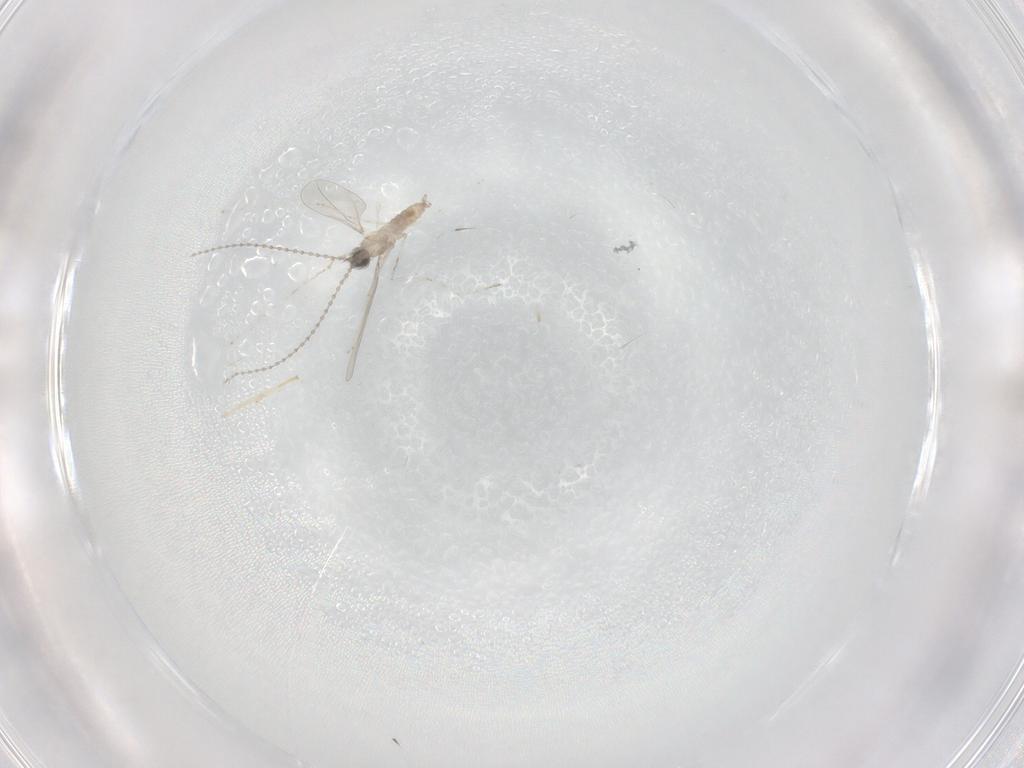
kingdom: Animalia
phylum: Arthropoda
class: Insecta
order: Diptera
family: Cecidomyiidae
